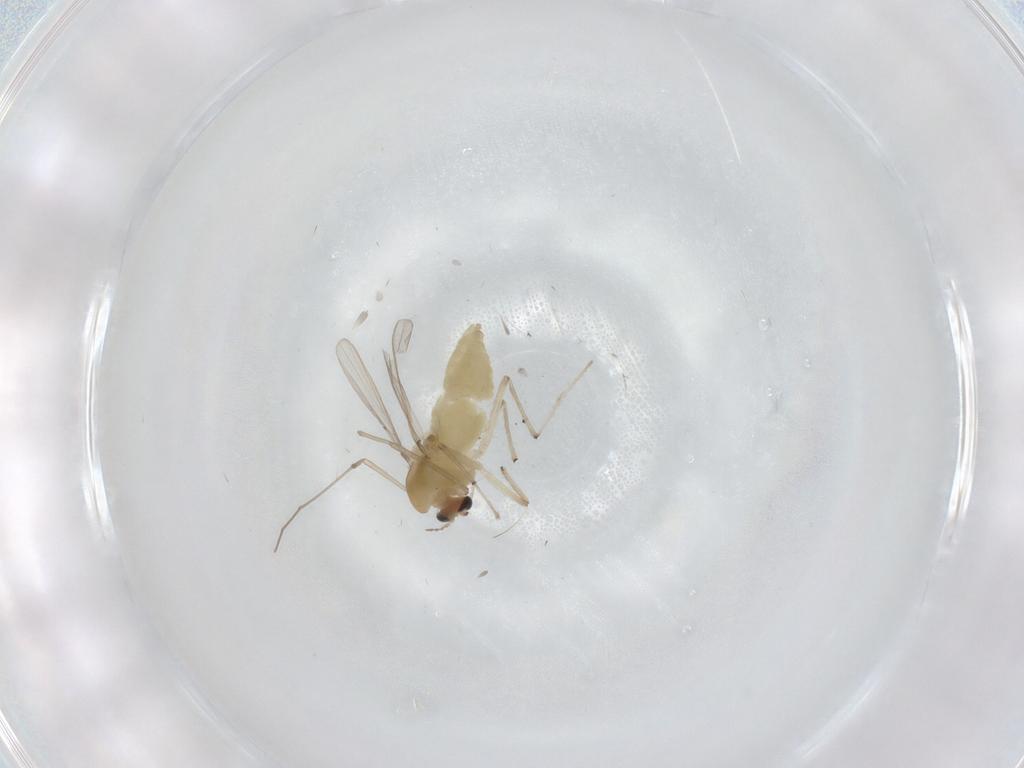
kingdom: Animalia
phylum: Arthropoda
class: Insecta
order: Diptera
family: Chironomidae
